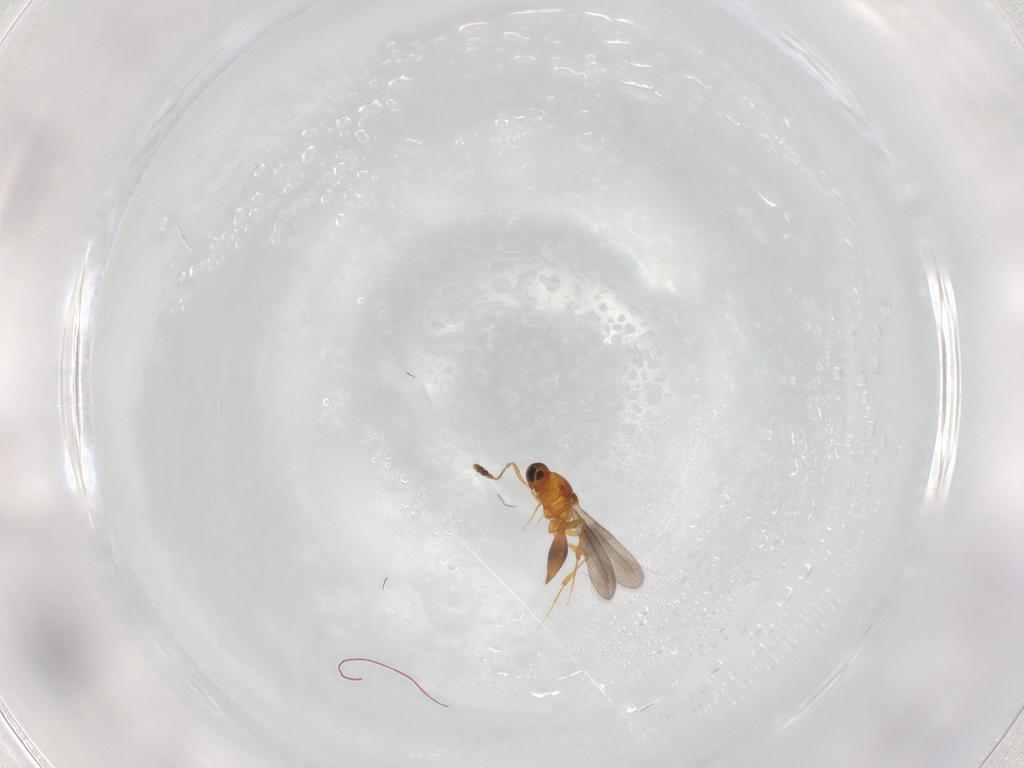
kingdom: Animalia
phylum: Arthropoda
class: Insecta
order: Hymenoptera
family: Platygastridae
